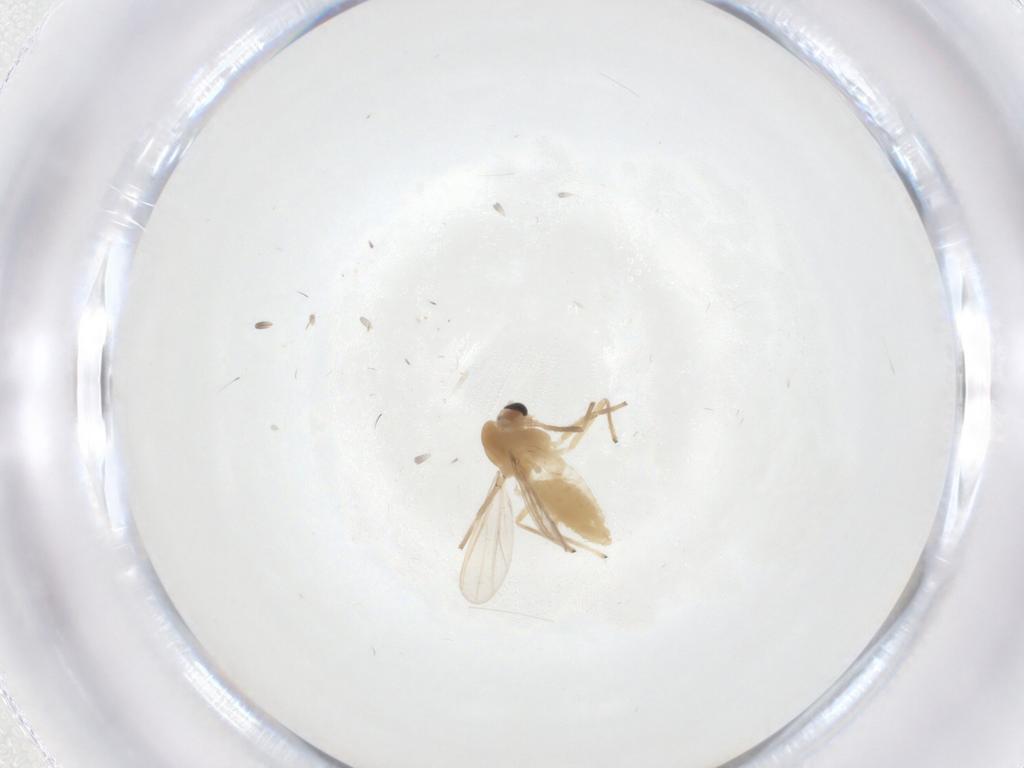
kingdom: Animalia
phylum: Arthropoda
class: Insecta
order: Diptera
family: Chironomidae
